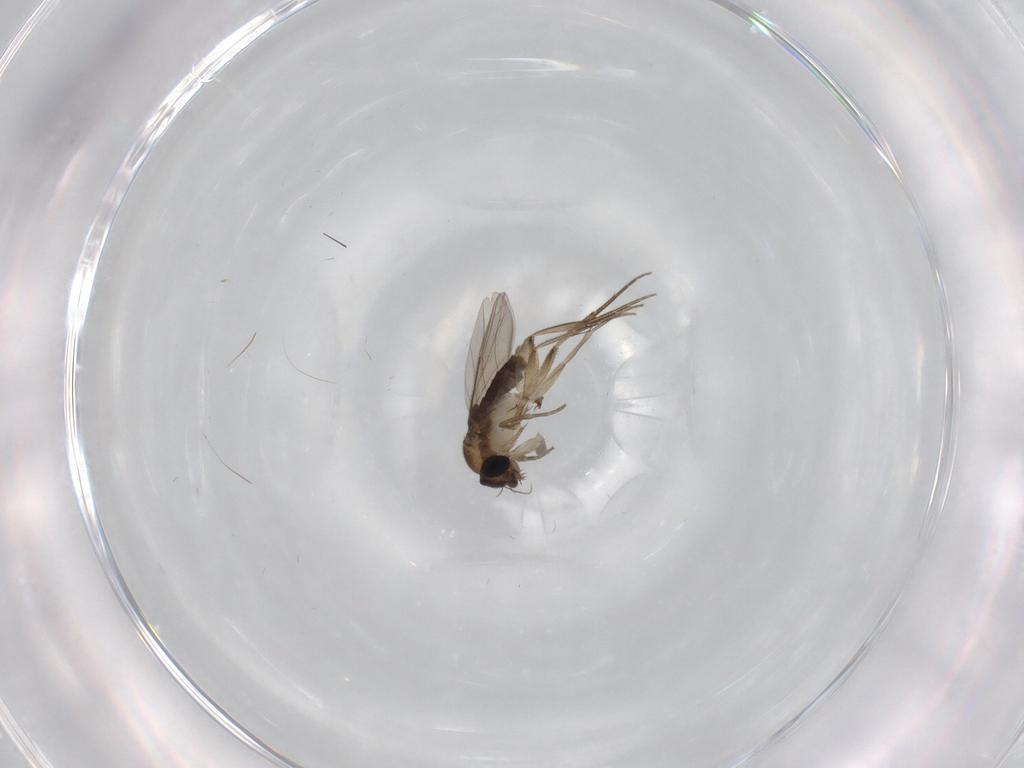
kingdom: Animalia
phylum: Arthropoda
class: Insecta
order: Diptera
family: Phoridae
